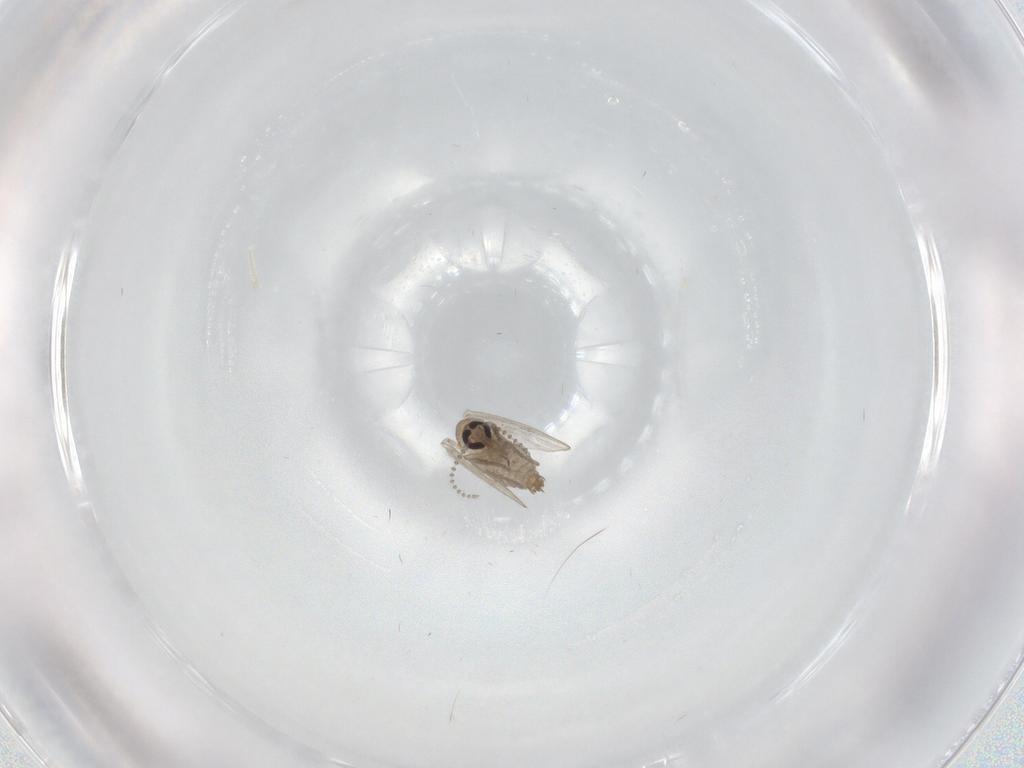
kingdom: Animalia
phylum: Arthropoda
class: Insecta
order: Diptera
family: Psychodidae
